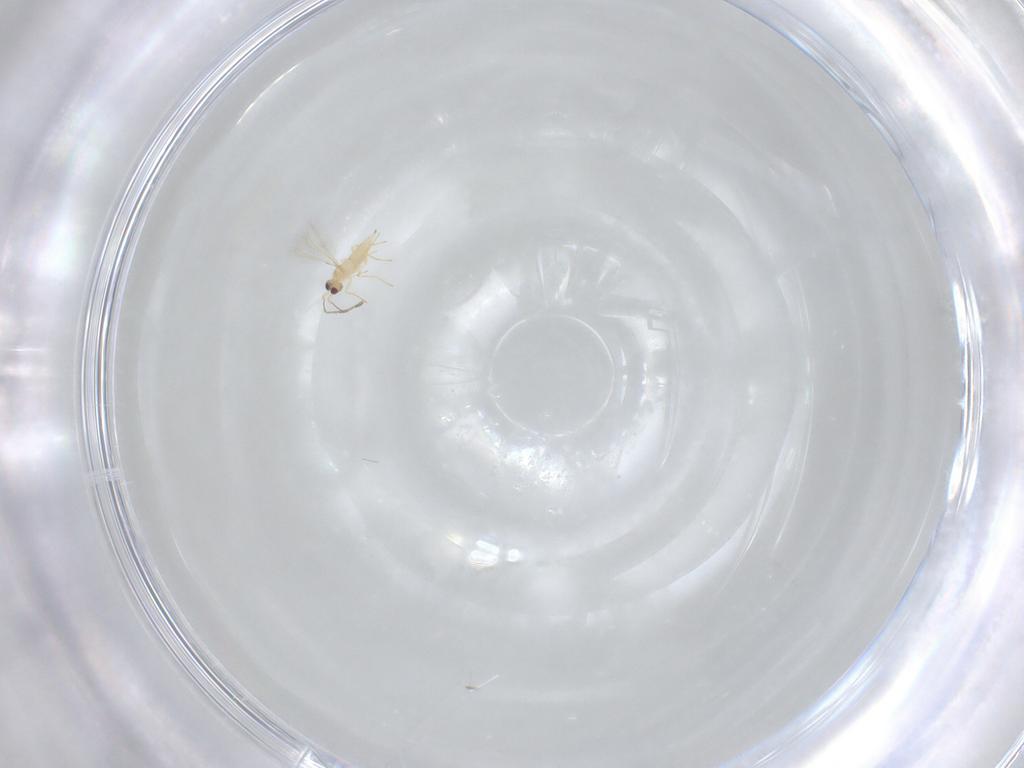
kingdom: Animalia
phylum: Arthropoda
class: Insecta
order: Hymenoptera
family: Mymaridae
